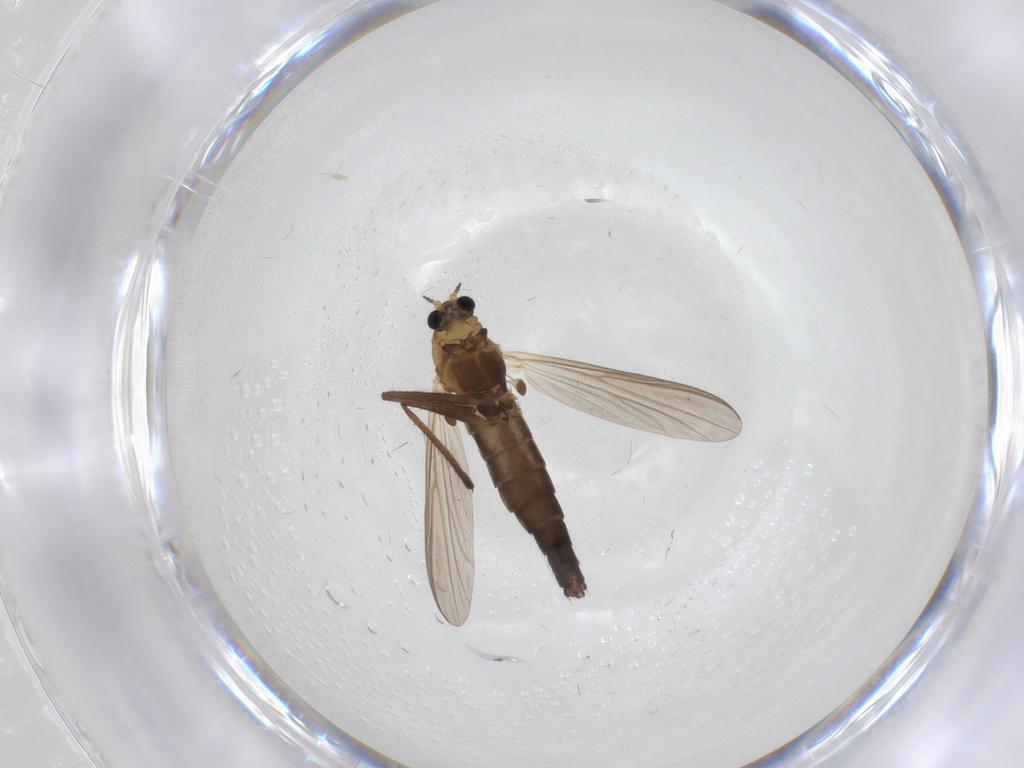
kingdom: Animalia
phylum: Arthropoda
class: Insecta
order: Diptera
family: Chironomidae
